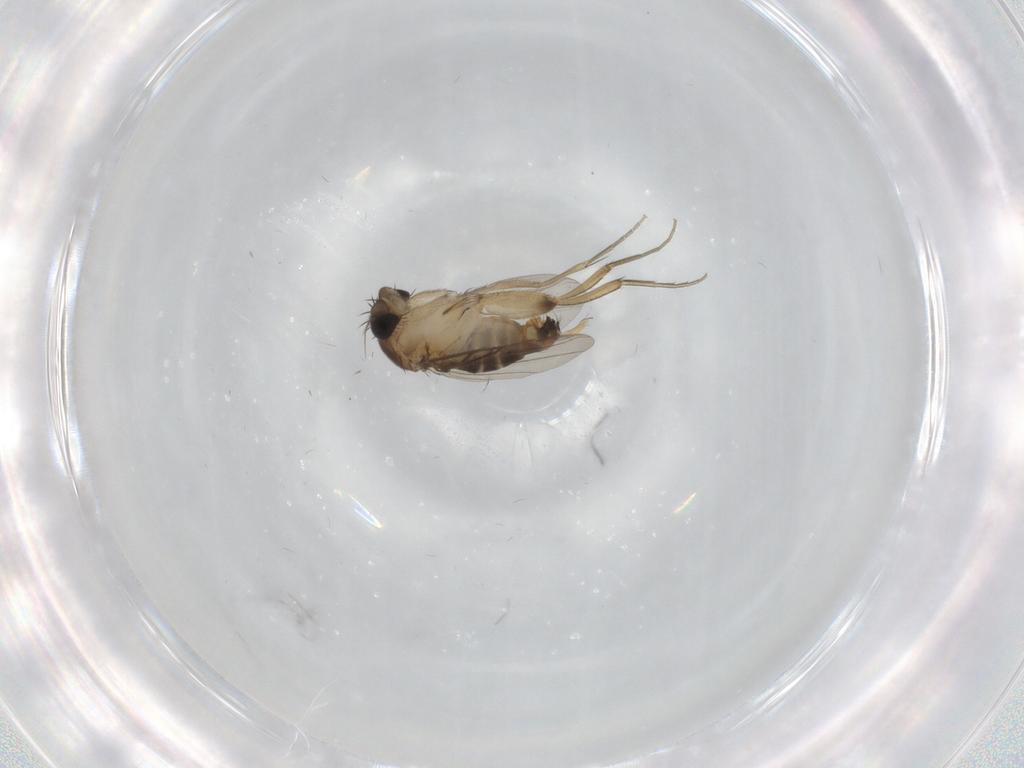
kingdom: Animalia
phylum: Arthropoda
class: Insecta
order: Diptera
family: Phoridae
